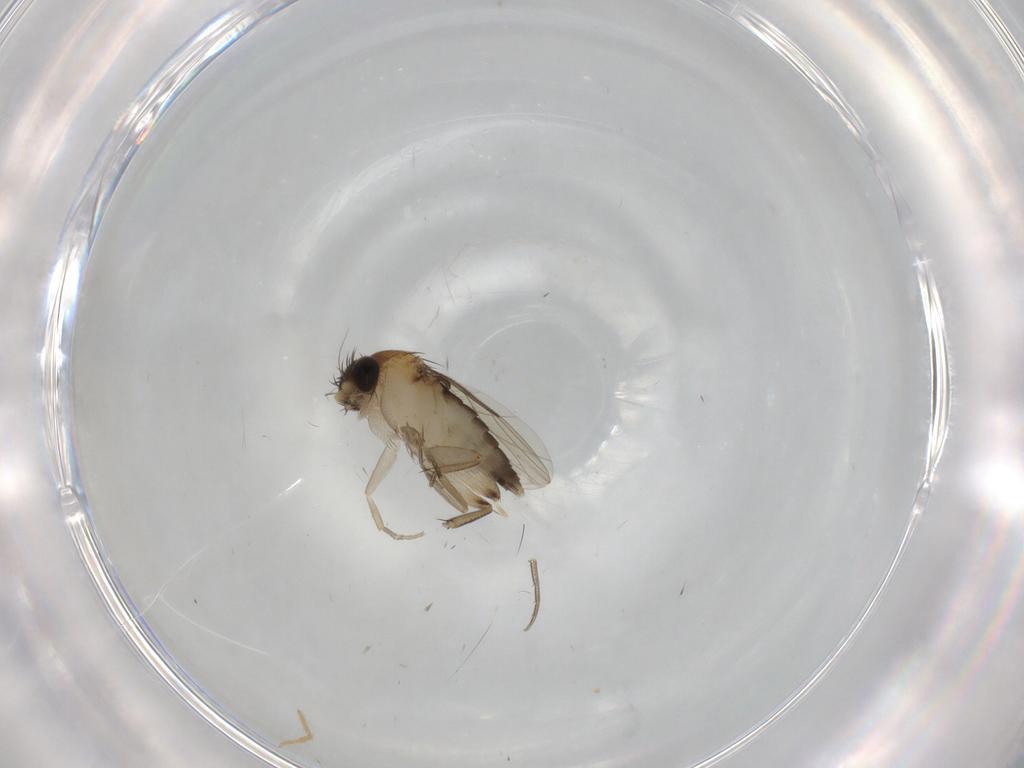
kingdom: Animalia
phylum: Arthropoda
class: Insecta
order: Diptera
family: Phoridae
